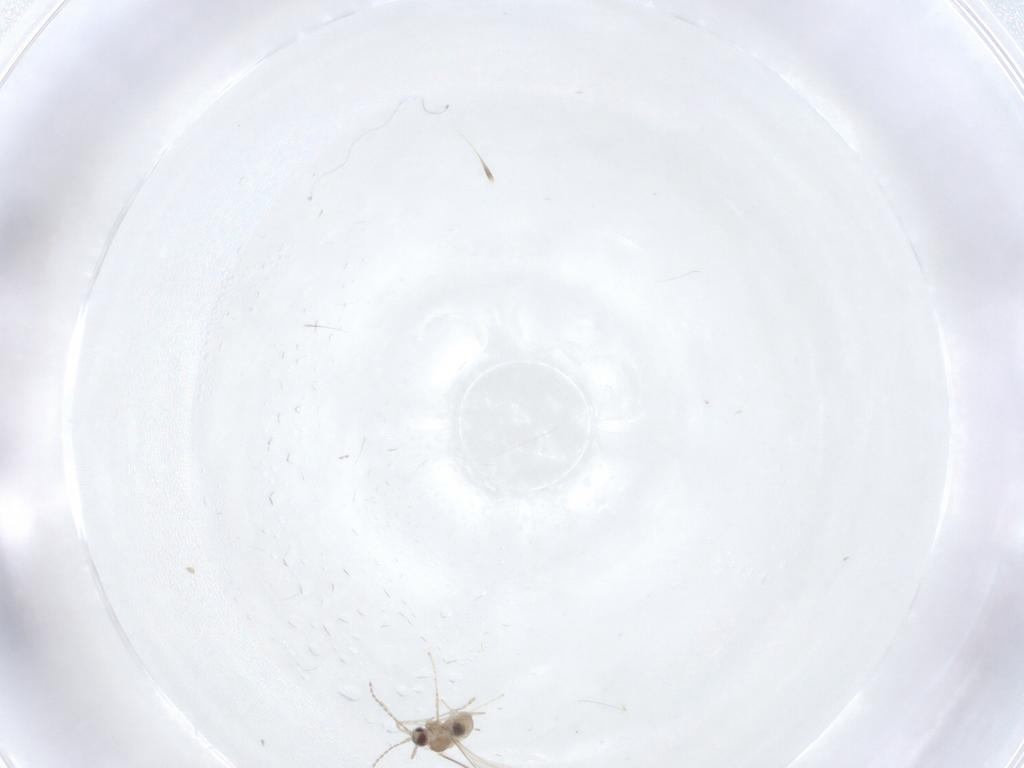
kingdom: Animalia
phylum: Arthropoda
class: Insecta
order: Diptera
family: Cecidomyiidae
